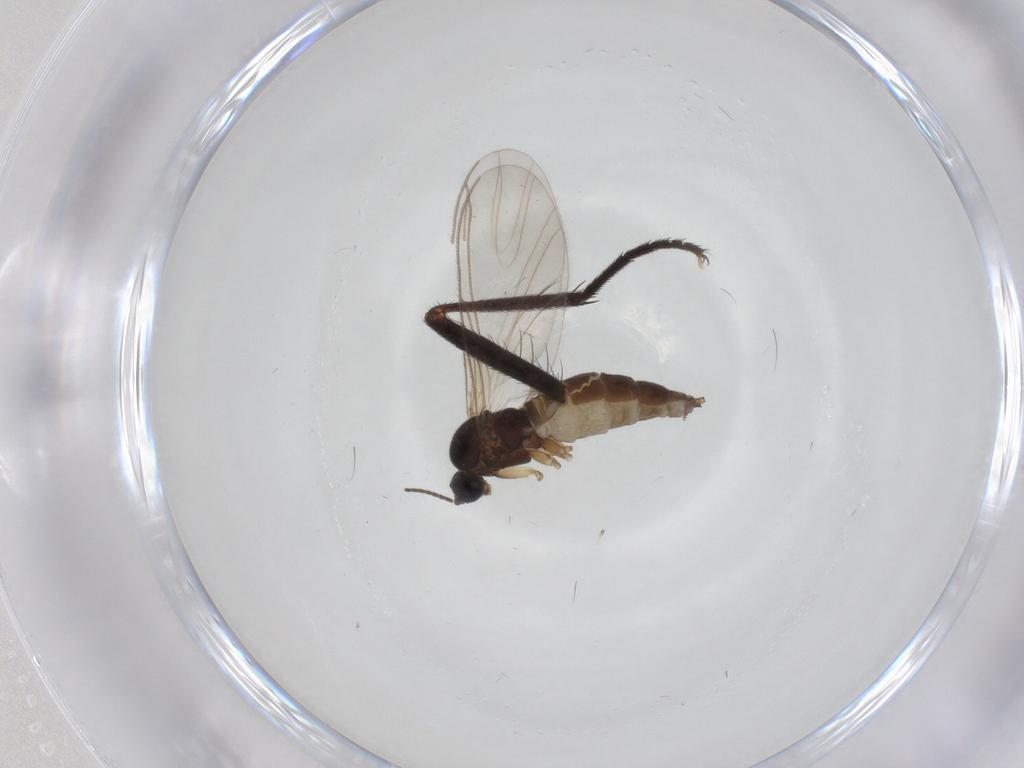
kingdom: Animalia
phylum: Arthropoda
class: Insecta
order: Diptera
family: Sciaridae
